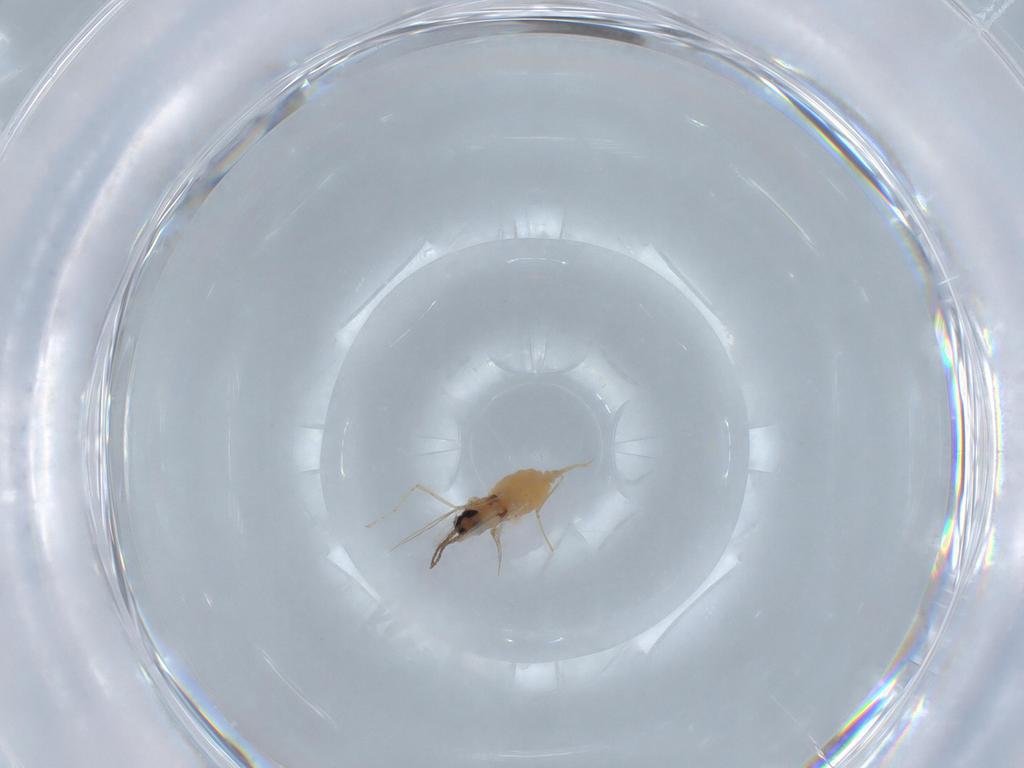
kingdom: Animalia
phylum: Arthropoda
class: Insecta
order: Diptera
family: Cecidomyiidae
